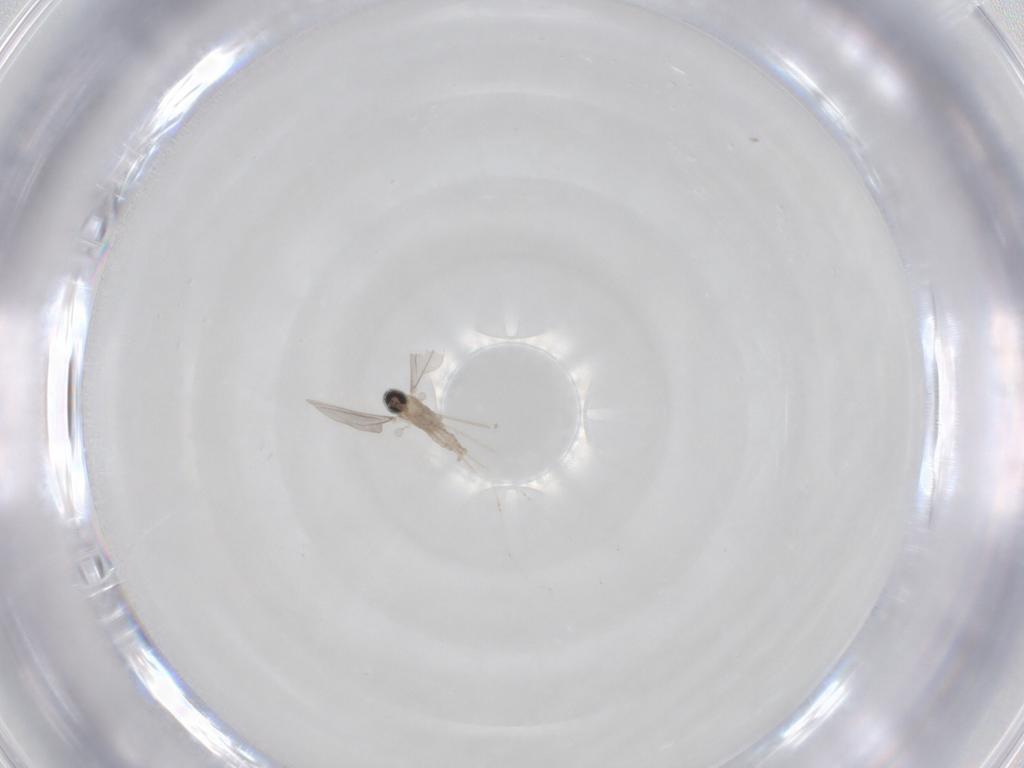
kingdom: Animalia
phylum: Arthropoda
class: Insecta
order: Diptera
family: Cecidomyiidae
